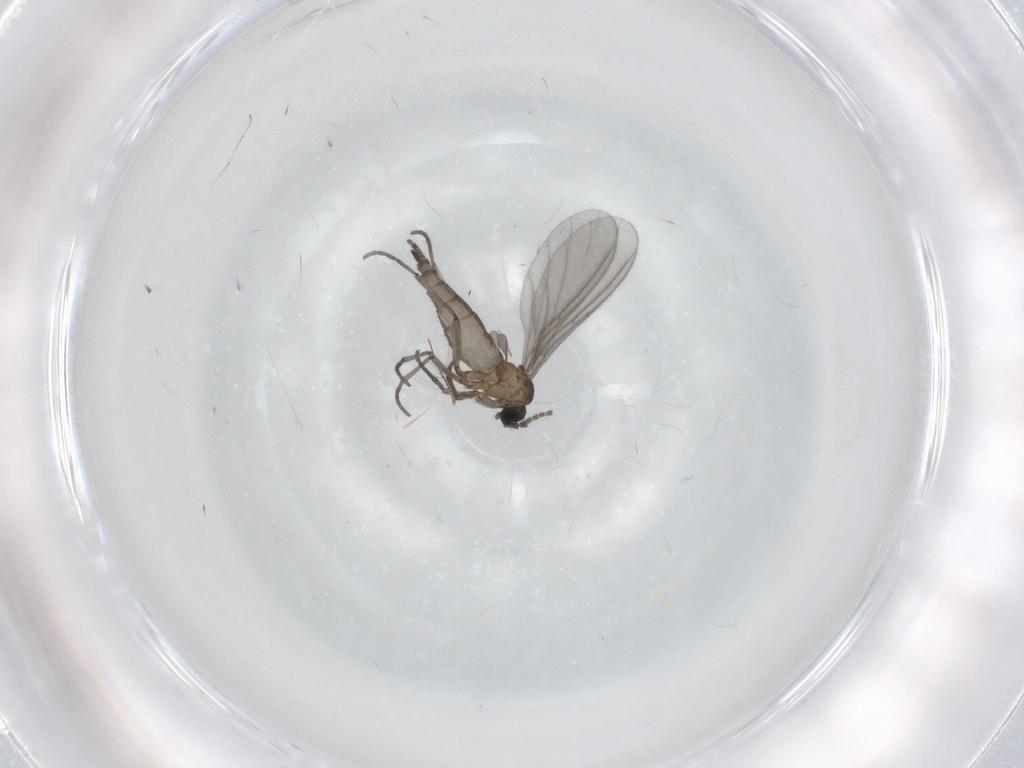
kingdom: Animalia
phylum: Arthropoda
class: Insecta
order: Diptera
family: Sciaridae
